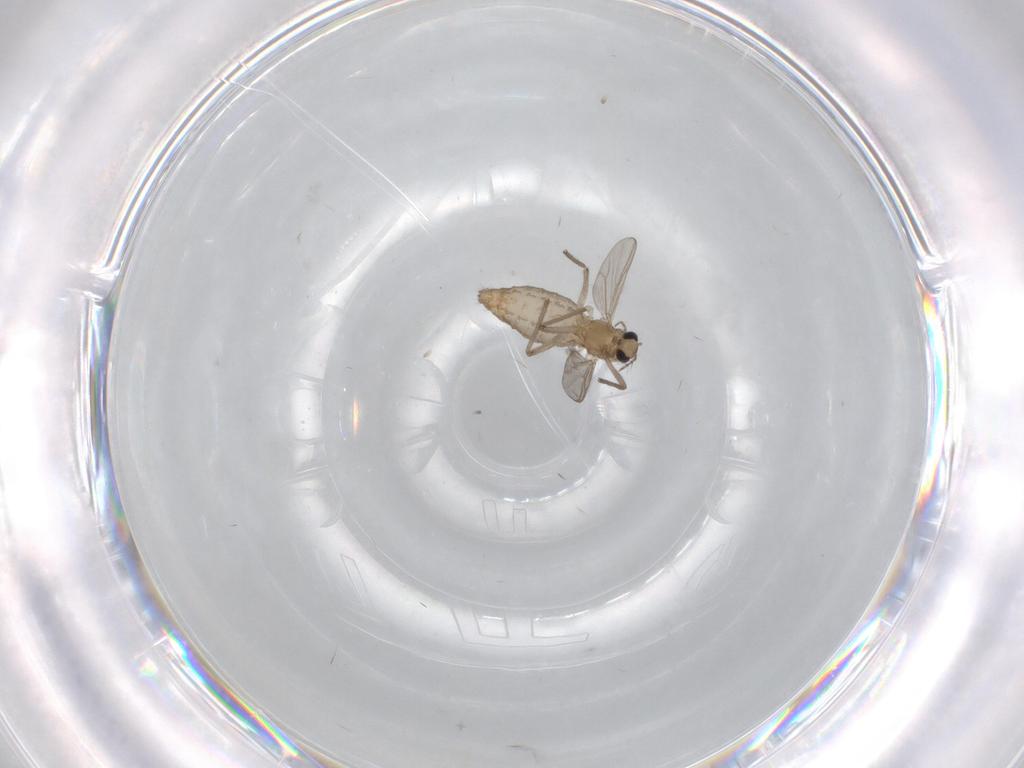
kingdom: Animalia
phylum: Arthropoda
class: Insecta
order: Diptera
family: Chironomidae
